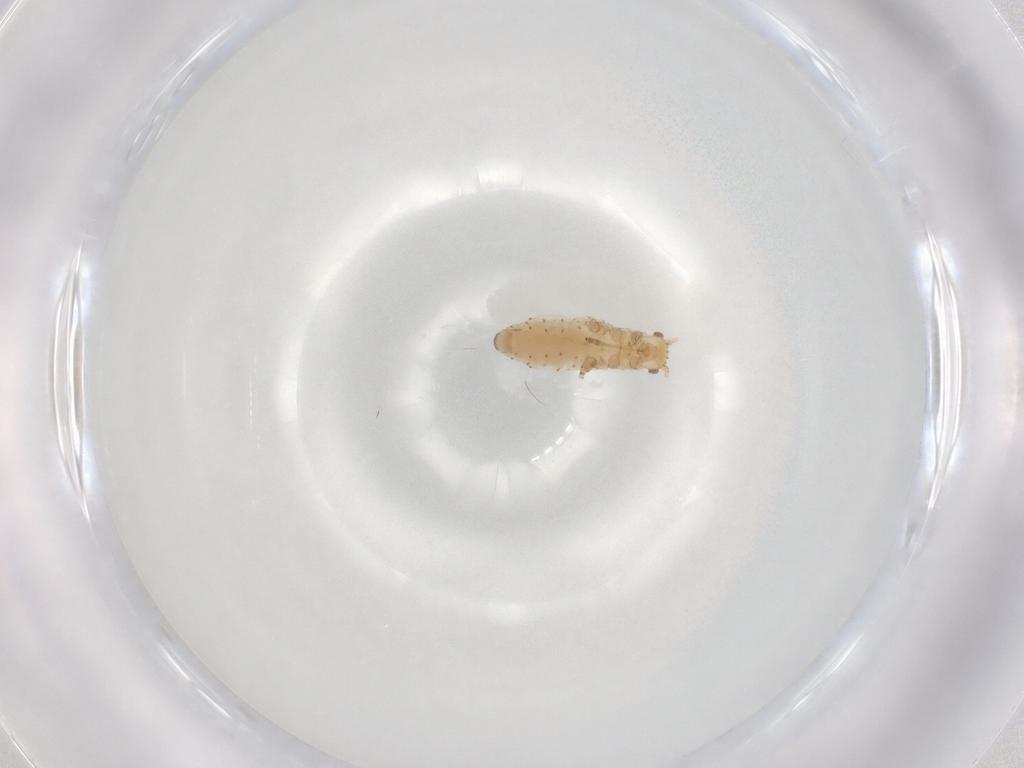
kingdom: Animalia
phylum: Arthropoda
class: Insecta
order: Hemiptera
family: Aphididae
